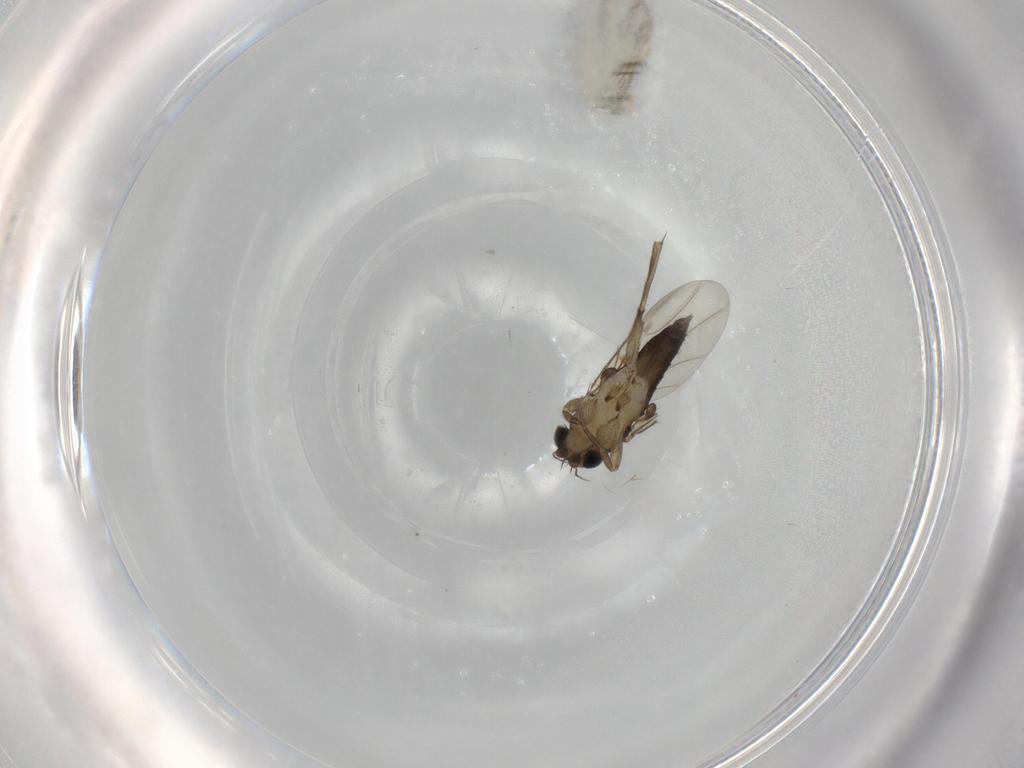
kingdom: Animalia
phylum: Arthropoda
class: Insecta
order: Diptera
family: Phoridae
